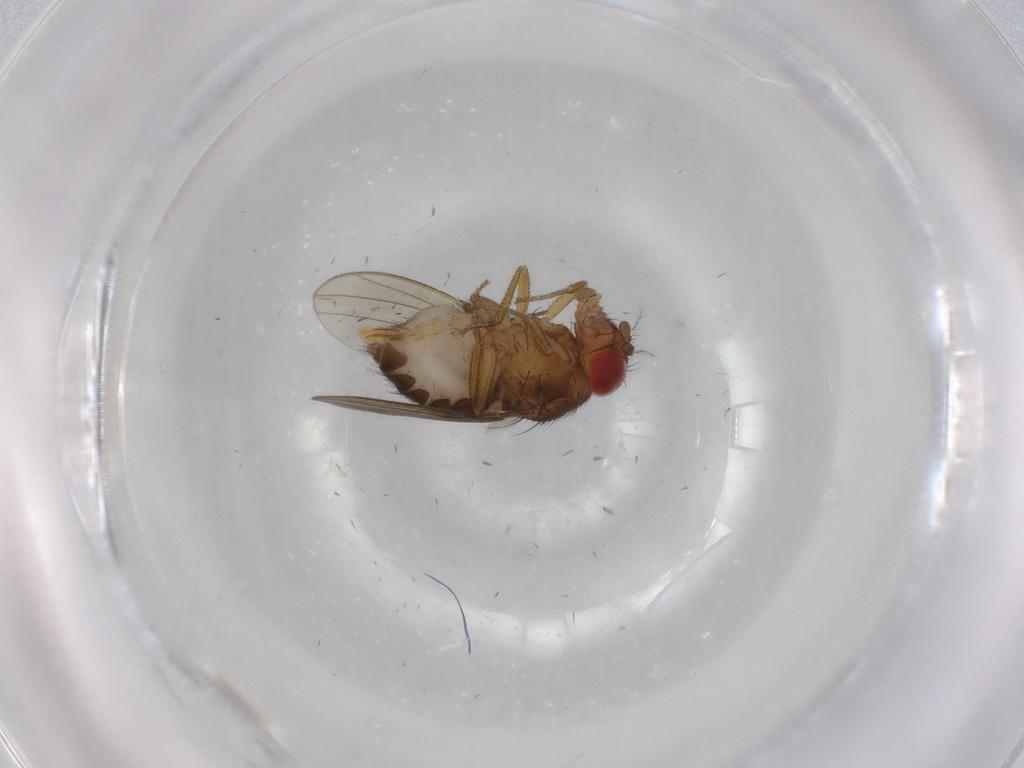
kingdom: Animalia
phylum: Arthropoda
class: Insecta
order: Diptera
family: Drosophilidae
